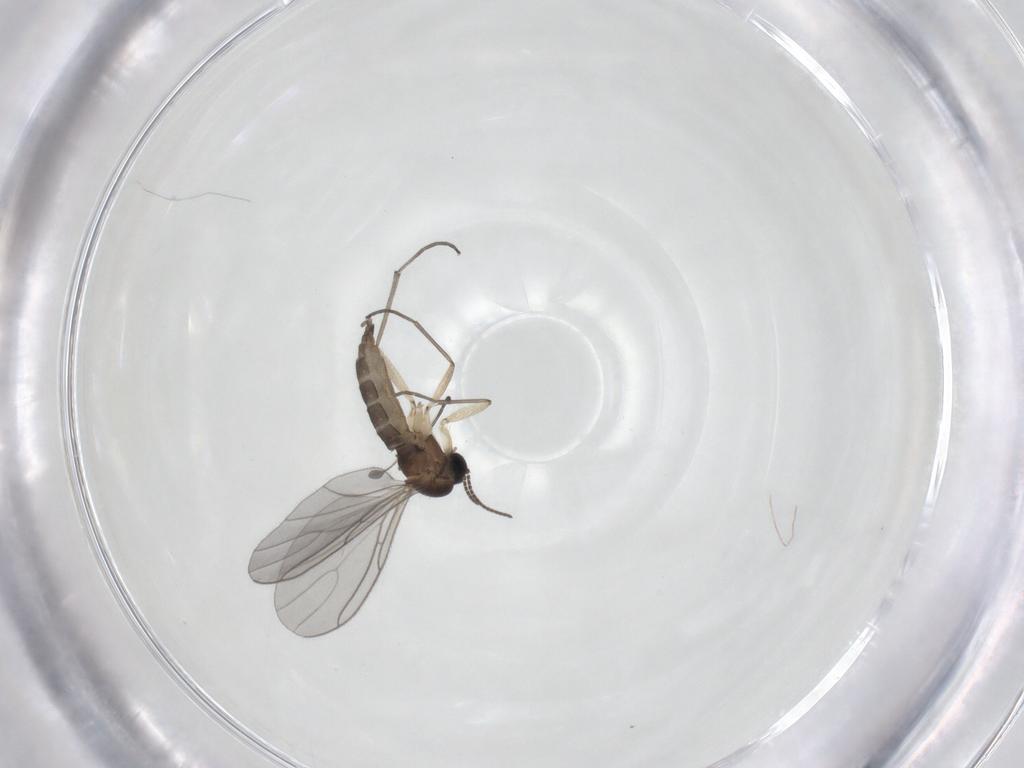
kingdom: Animalia
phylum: Arthropoda
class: Insecta
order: Diptera
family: Sciaridae
